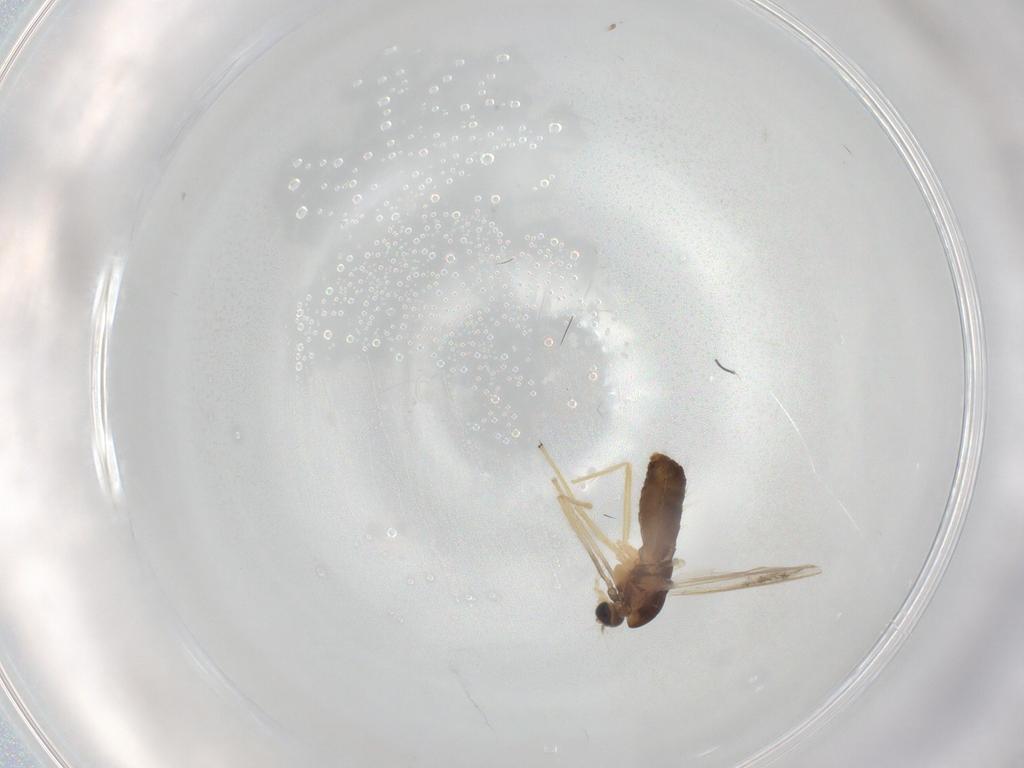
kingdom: Animalia
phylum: Arthropoda
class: Insecta
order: Diptera
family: Chironomidae
